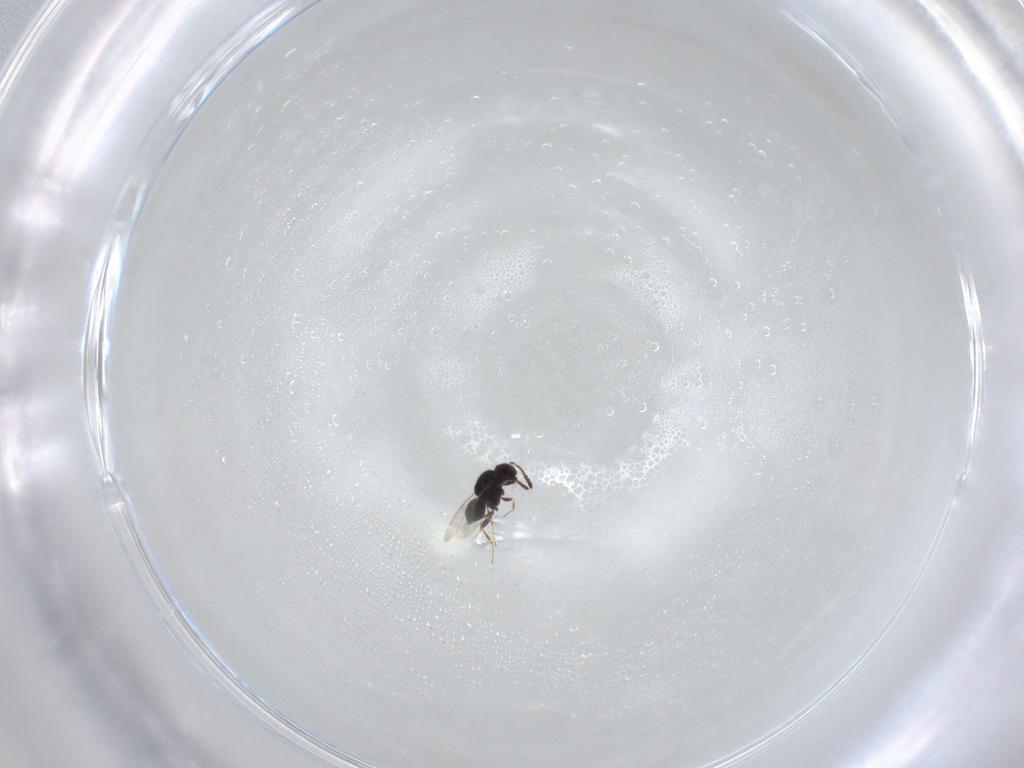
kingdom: Animalia
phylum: Arthropoda
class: Insecta
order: Hymenoptera
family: Ceraphronidae
